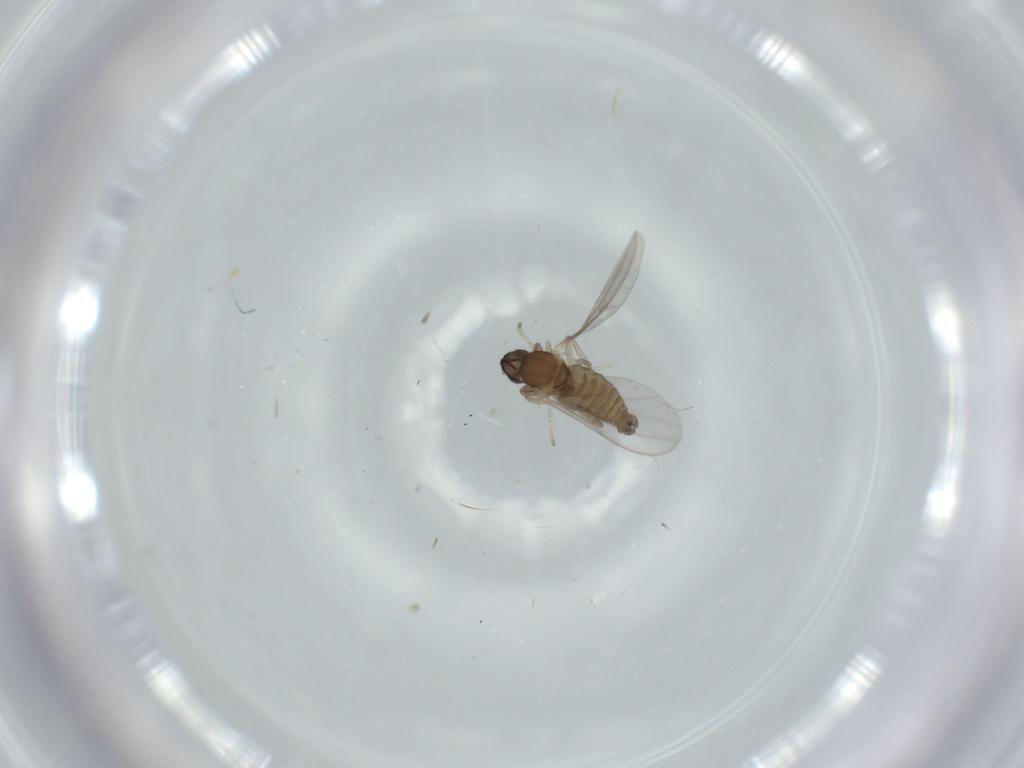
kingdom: Animalia
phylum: Arthropoda
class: Insecta
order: Diptera
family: Cecidomyiidae
